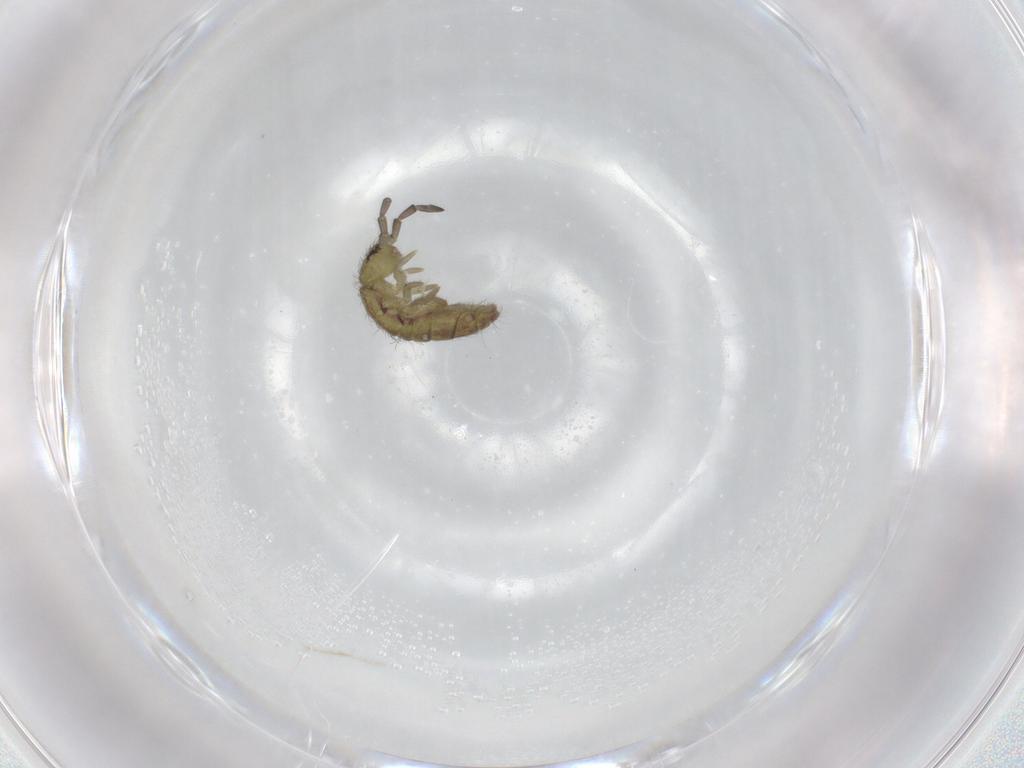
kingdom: Animalia
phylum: Arthropoda
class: Collembola
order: Entomobryomorpha
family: Isotomidae
